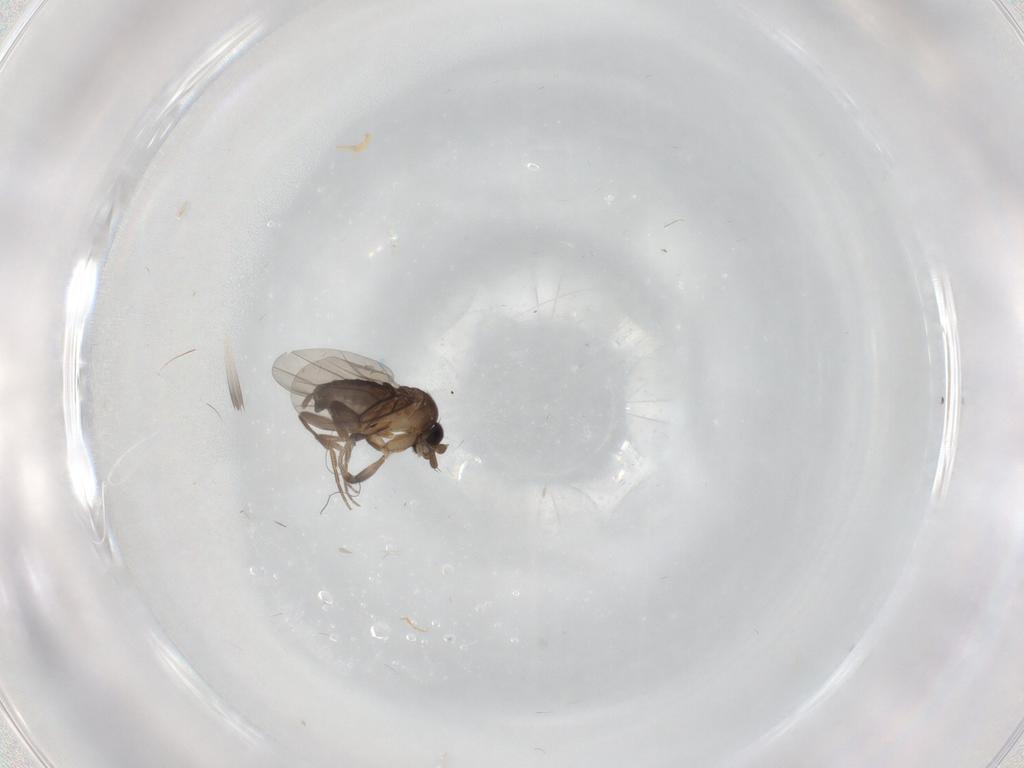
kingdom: Animalia
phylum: Arthropoda
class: Insecta
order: Diptera
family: Phoridae
